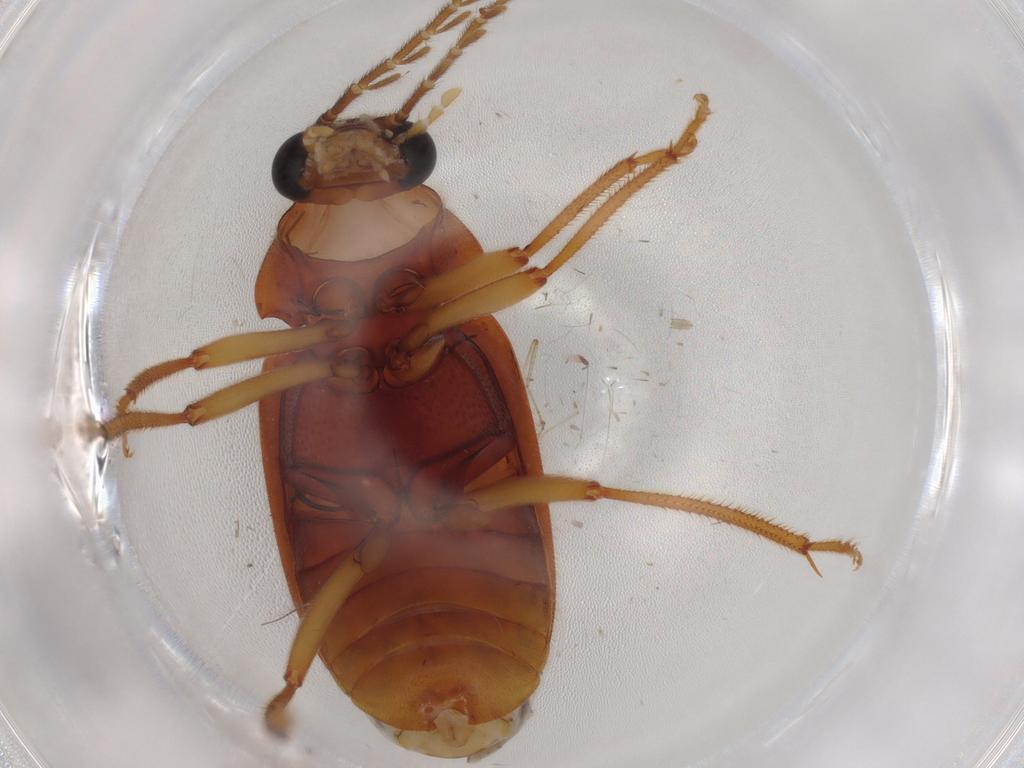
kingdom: Animalia
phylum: Arthropoda
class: Insecta
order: Coleoptera
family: Ptilodactylidae
